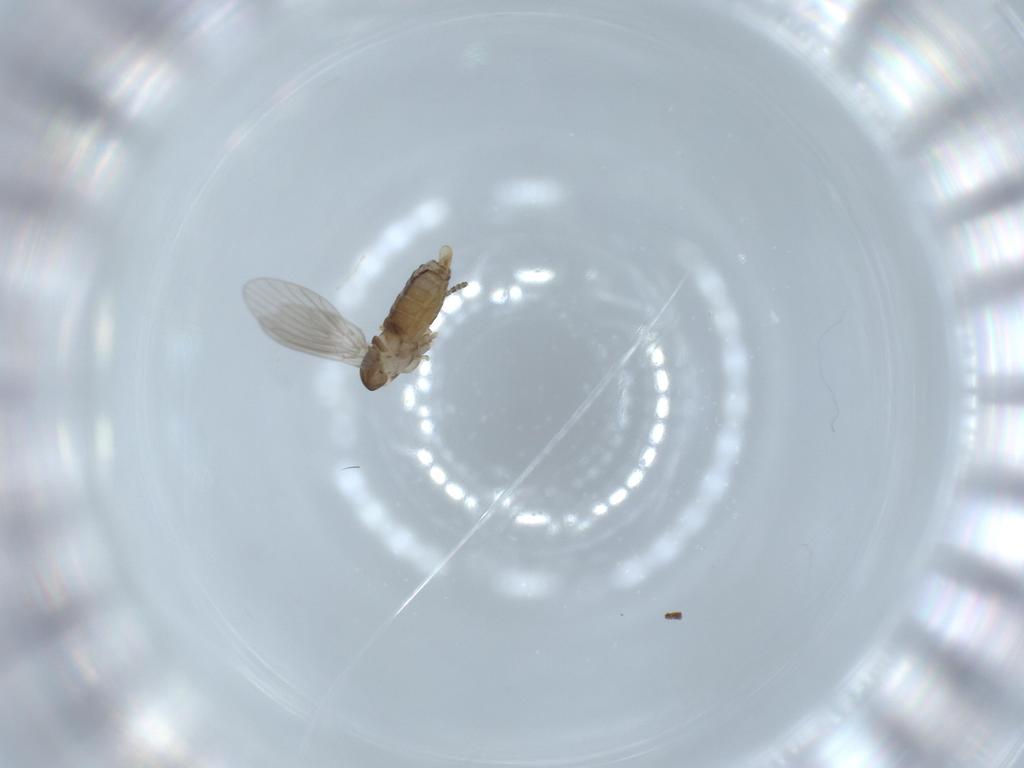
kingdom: Animalia
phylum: Arthropoda
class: Insecta
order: Diptera
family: Psychodidae
